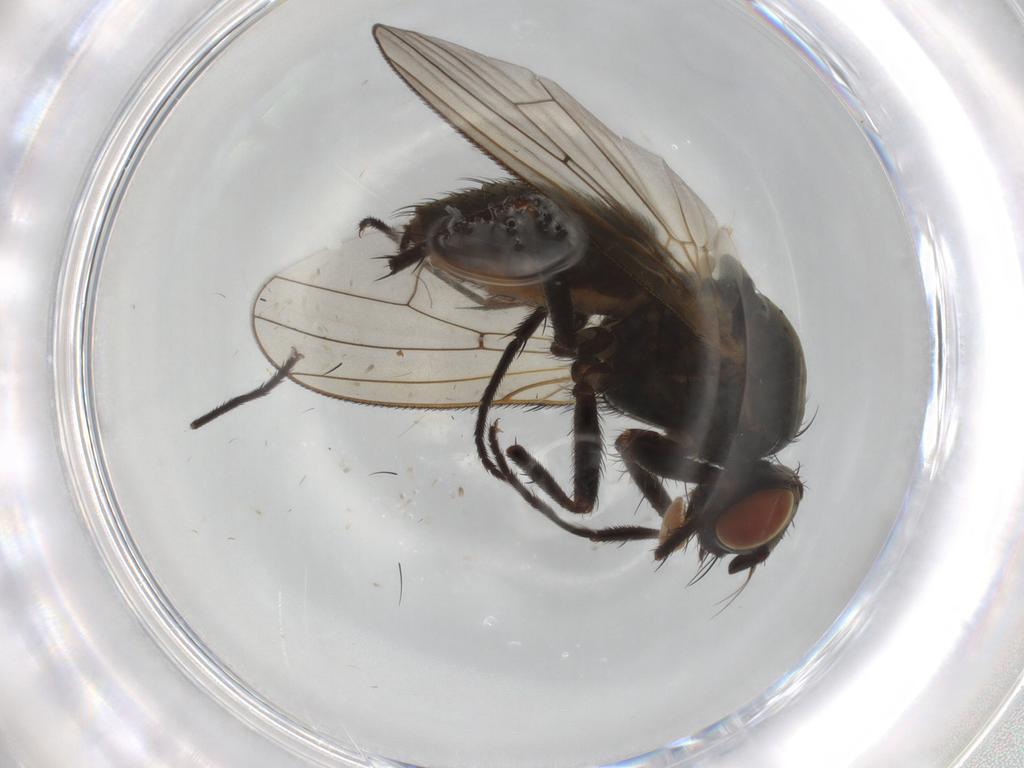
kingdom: Animalia
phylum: Arthropoda
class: Insecta
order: Diptera
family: Anthomyiidae
